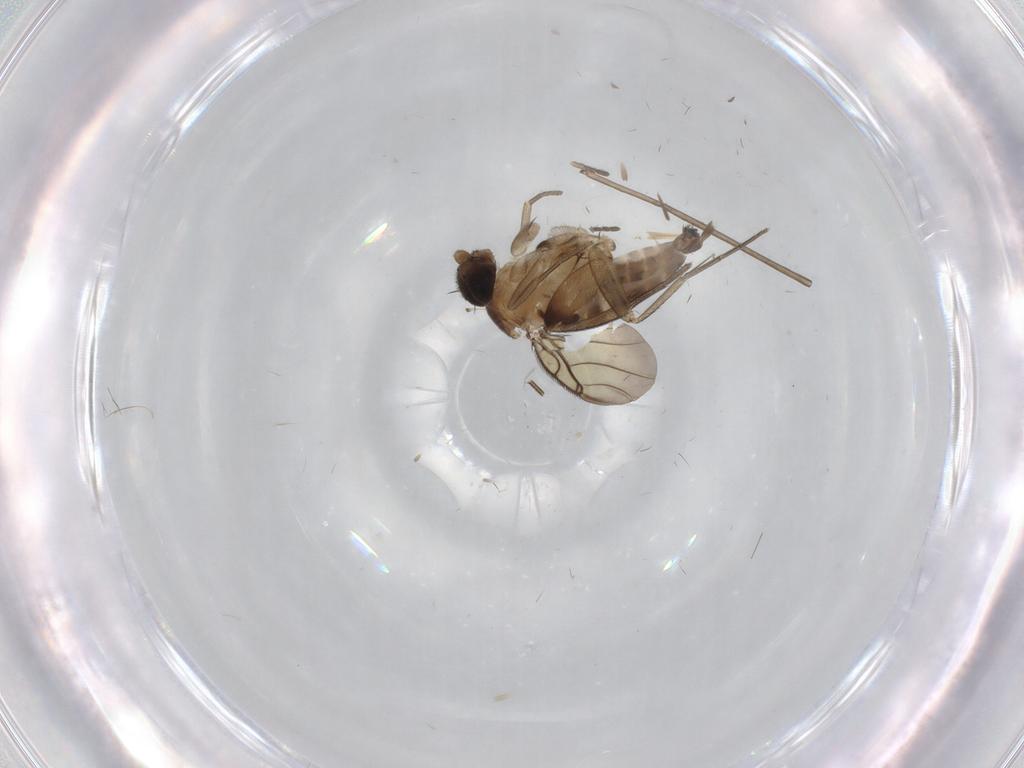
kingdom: Animalia
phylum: Arthropoda
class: Insecta
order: Diptera
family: Phoridae
